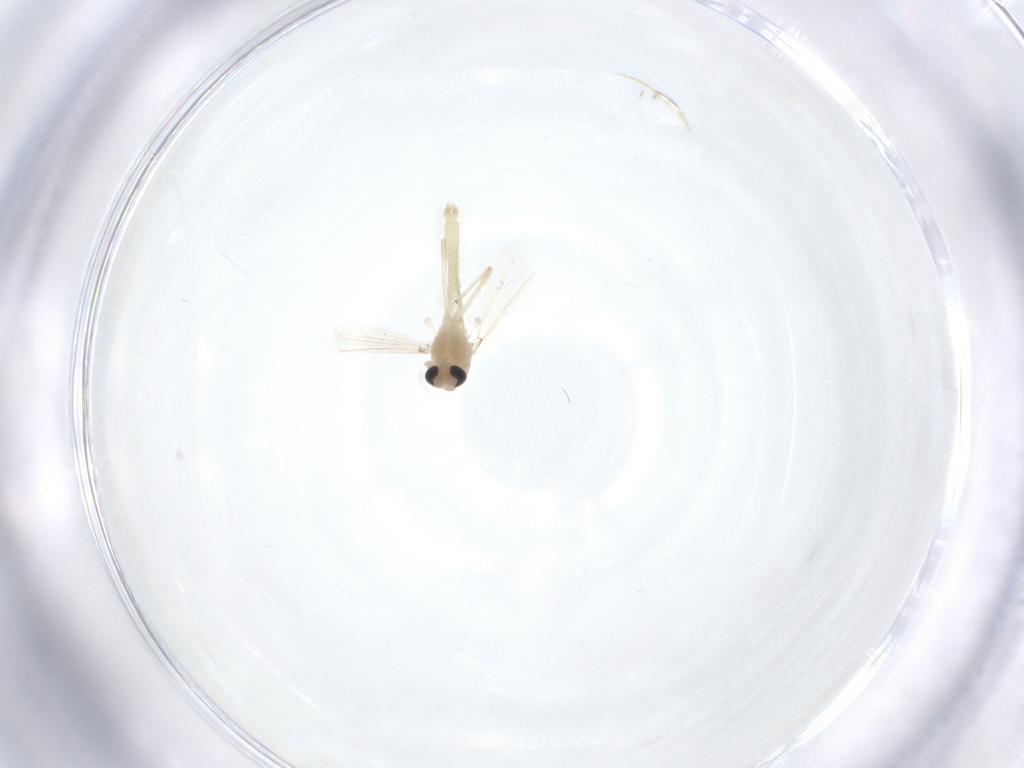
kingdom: Animalia
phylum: Arthropoda
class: Insecta
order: Diptera
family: Chironomidae
